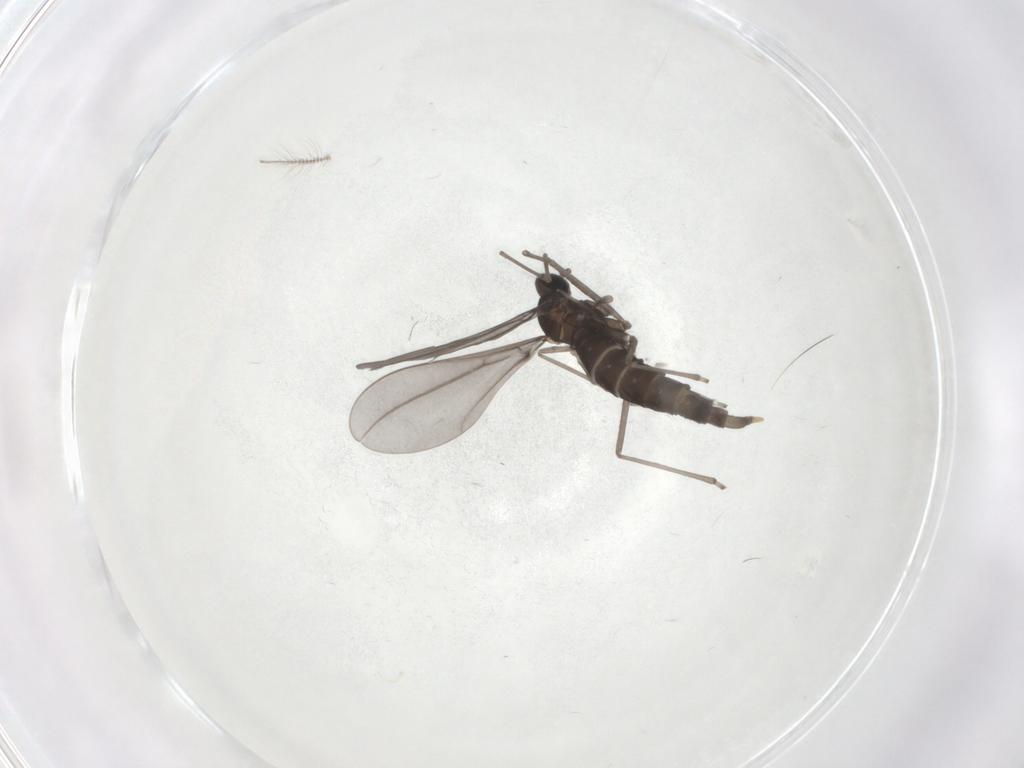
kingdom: Animalia
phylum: Arthropoda
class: Insecta
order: Diptera
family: Cecidomyiidae
